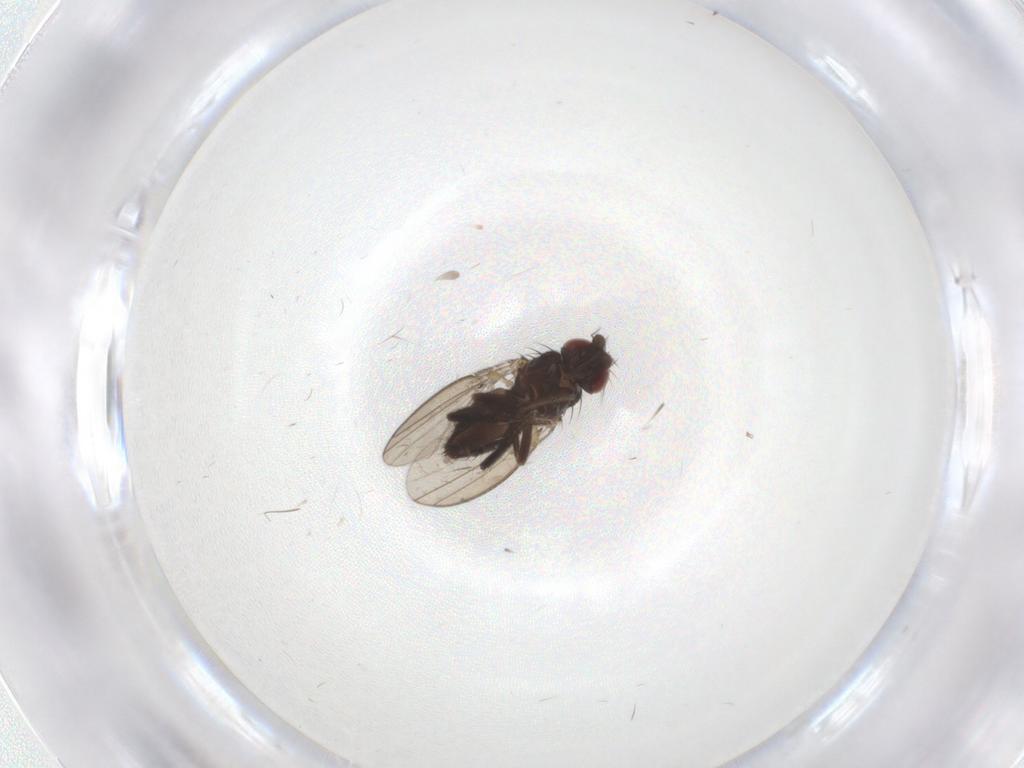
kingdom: Animalia
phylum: Arthropoda
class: Insecta
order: Diptera
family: Milichiidae
